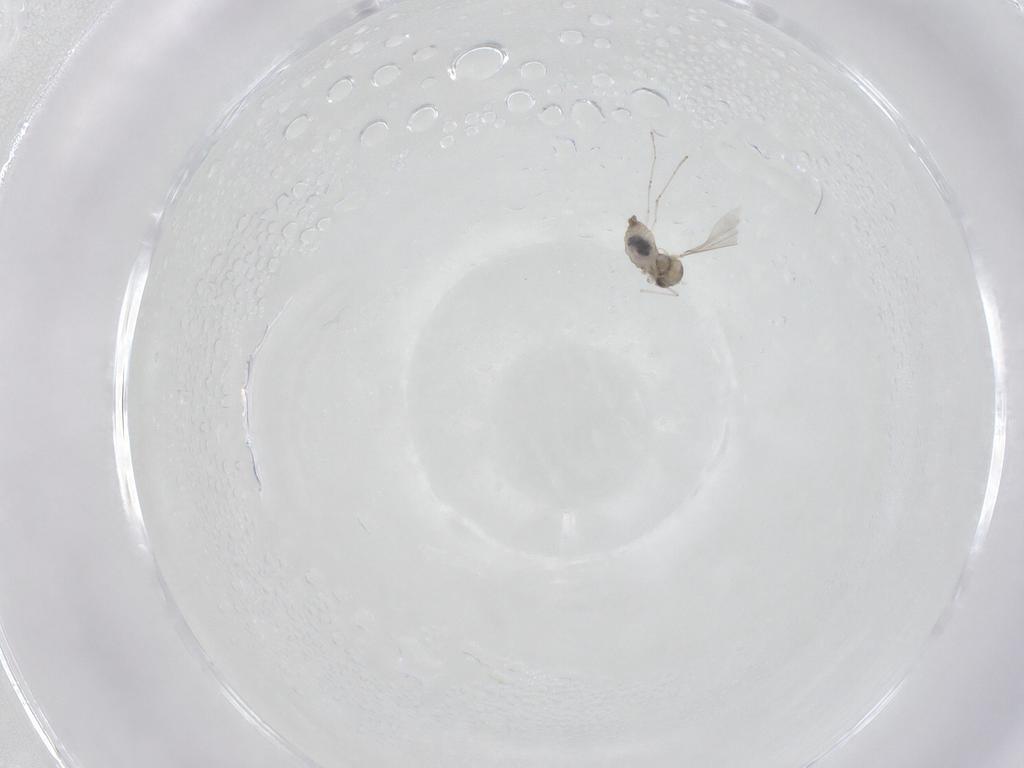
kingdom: Animalia
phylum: Arthropoda
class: Insecta
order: Diptera
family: Cecidomyiidae
